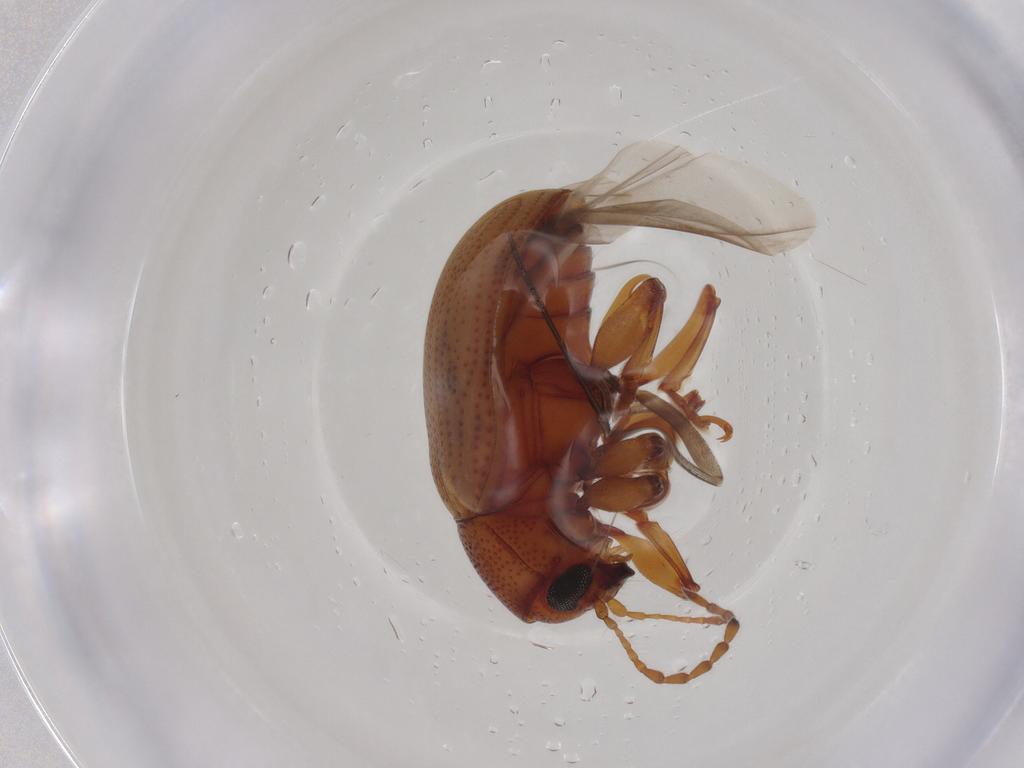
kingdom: Animalia
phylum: Arthropoda
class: Insecta
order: Coleoptera
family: Chrysomelidae
